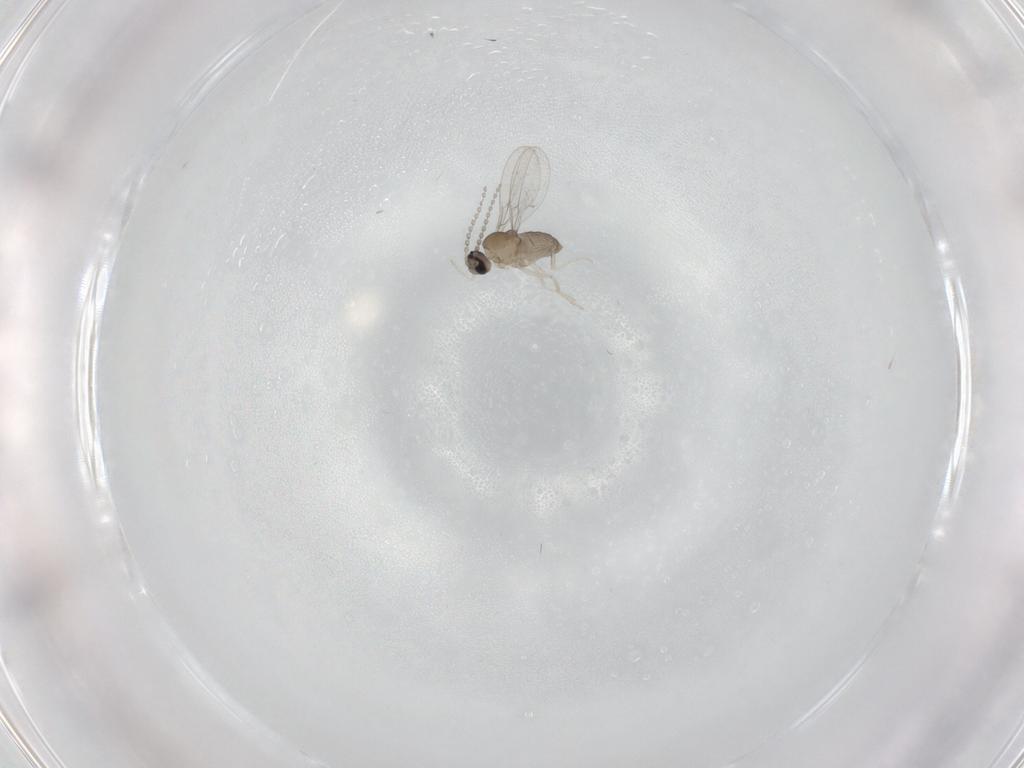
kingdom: Animalia
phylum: Arthropoda
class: Insecta
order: Diptera
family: Cecidomyiidae
